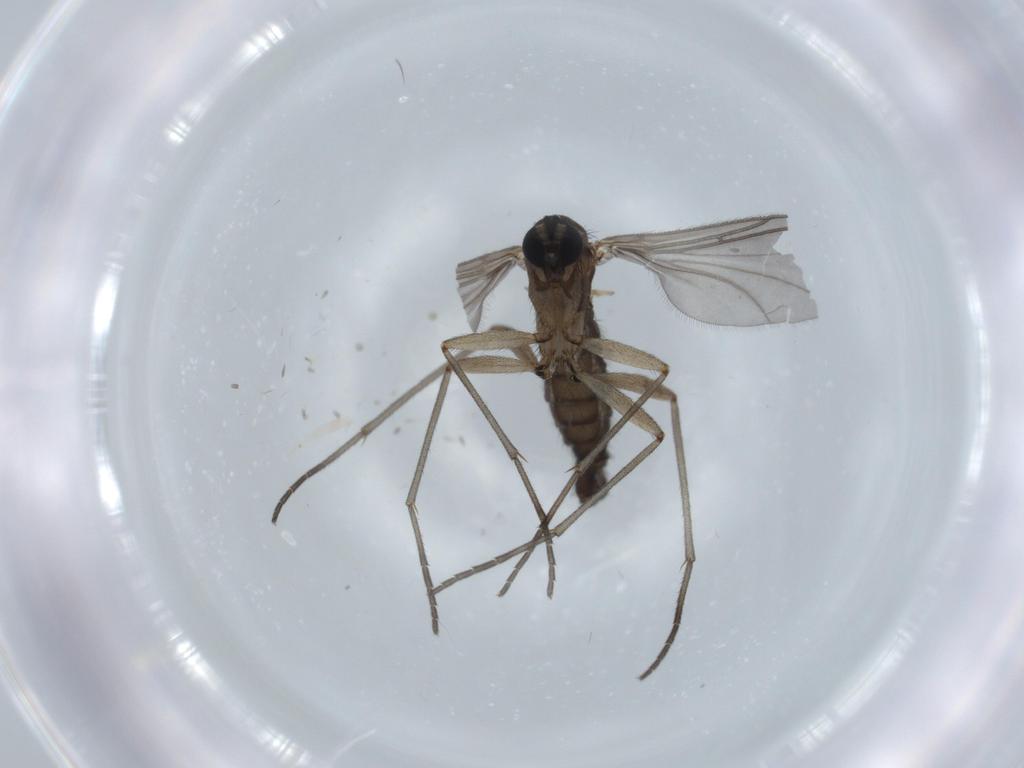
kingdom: Animalia
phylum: Arthropoda
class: Insecta
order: Diptera
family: Sciaridae
